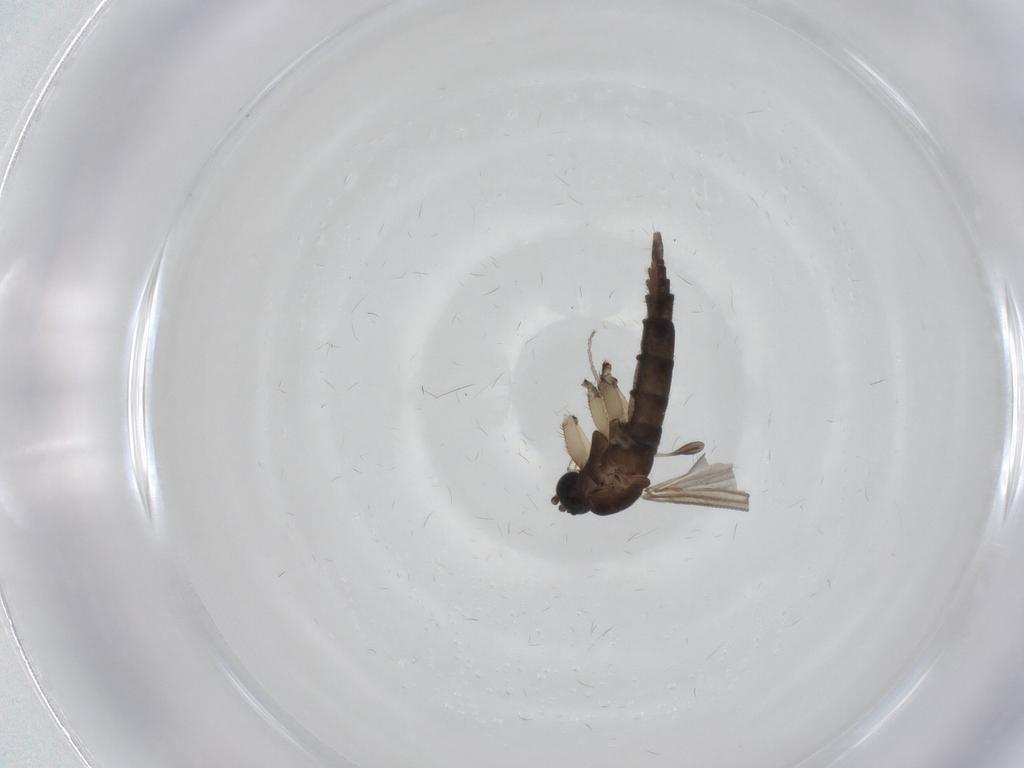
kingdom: Animalia
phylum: Arthropoda
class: Insecta
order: Diptera
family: Sciaridae
